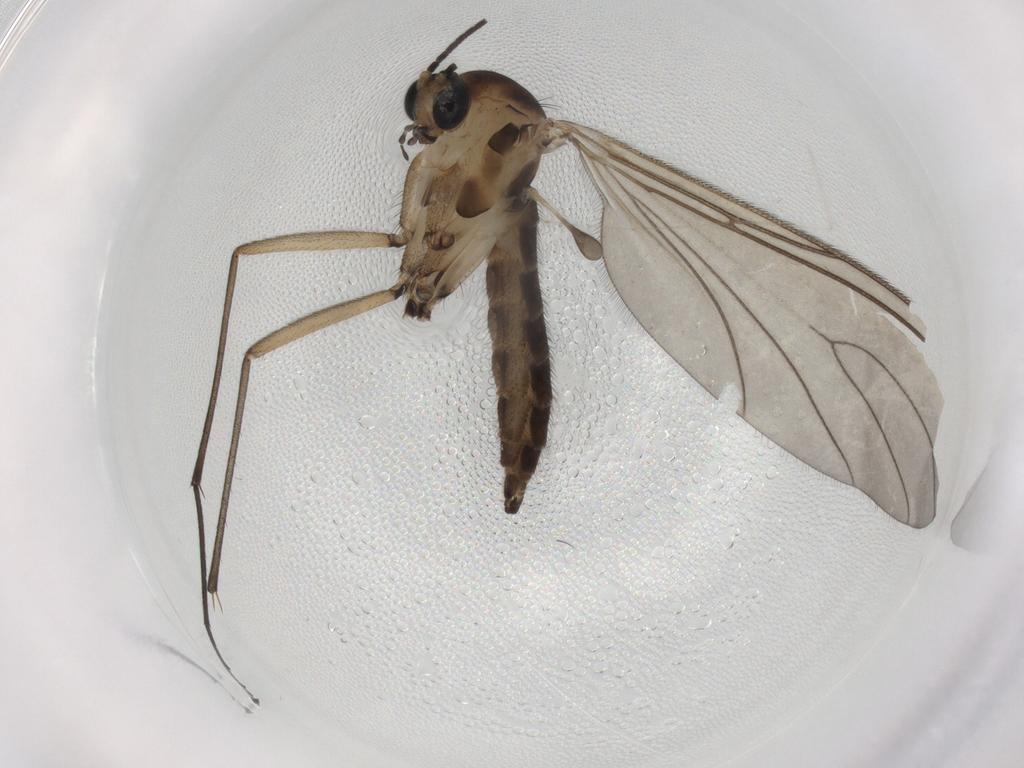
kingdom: Animalia
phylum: Arthropoda
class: Insecta
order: Diptera
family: Sciaridae
